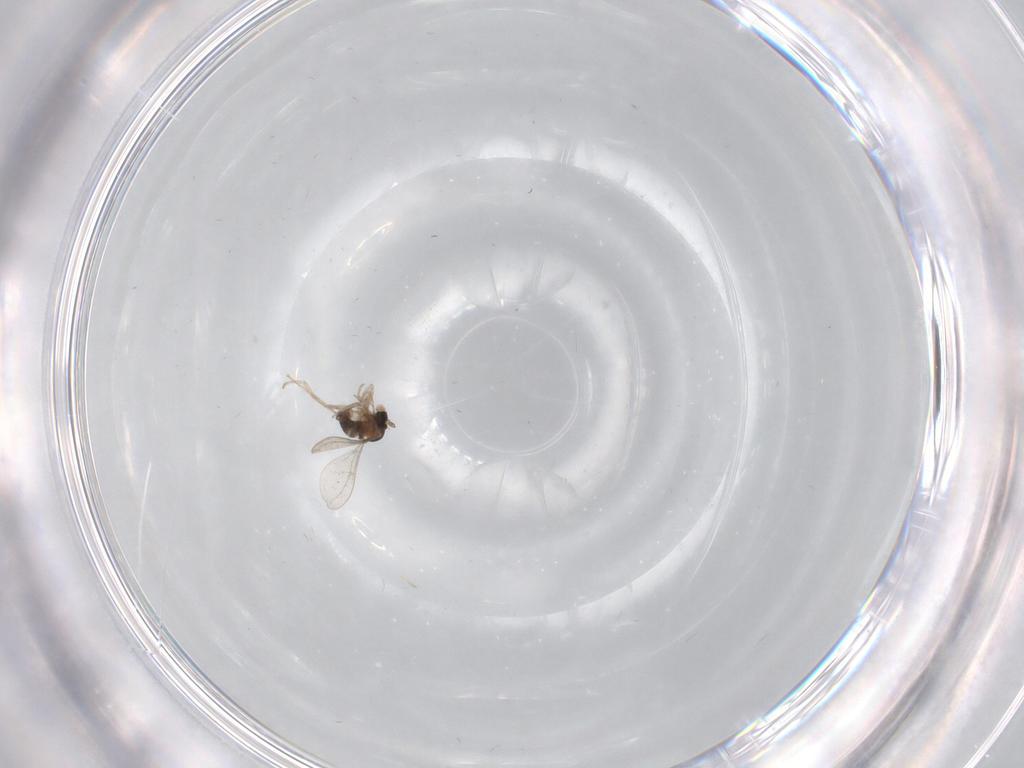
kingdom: Animalia
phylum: Arthropoda
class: Insecta
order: Diptera
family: Cecidomyiidae
